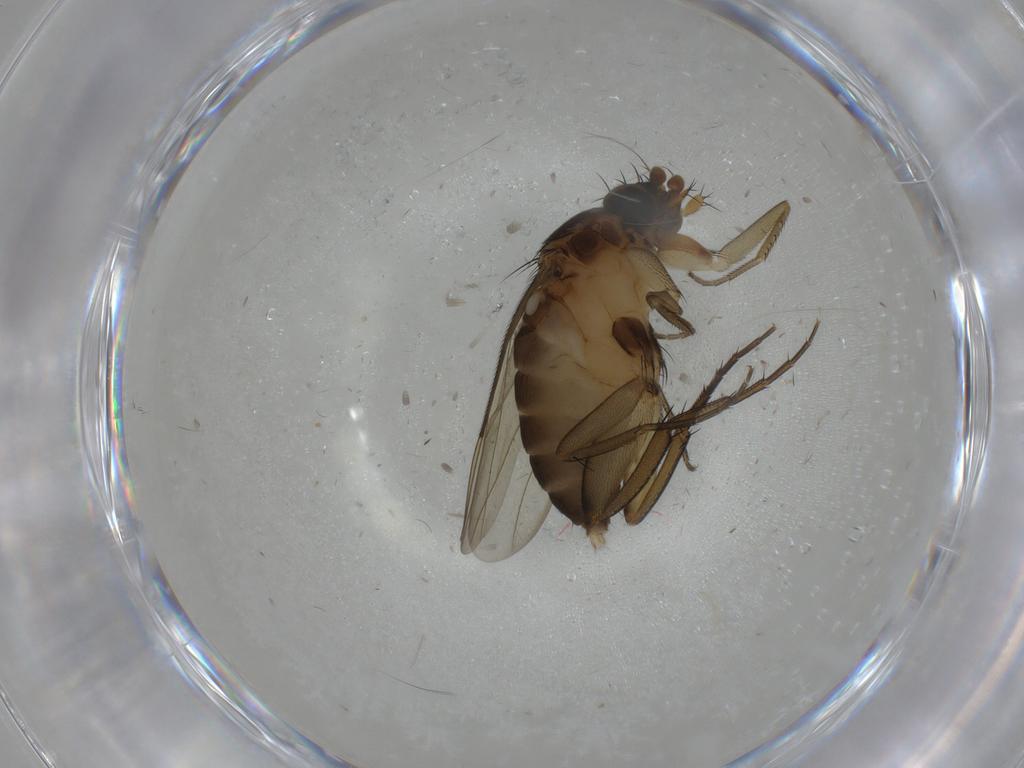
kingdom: Animalia
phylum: Arthropoda
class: Insecta
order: Diptera
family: Phoridae
